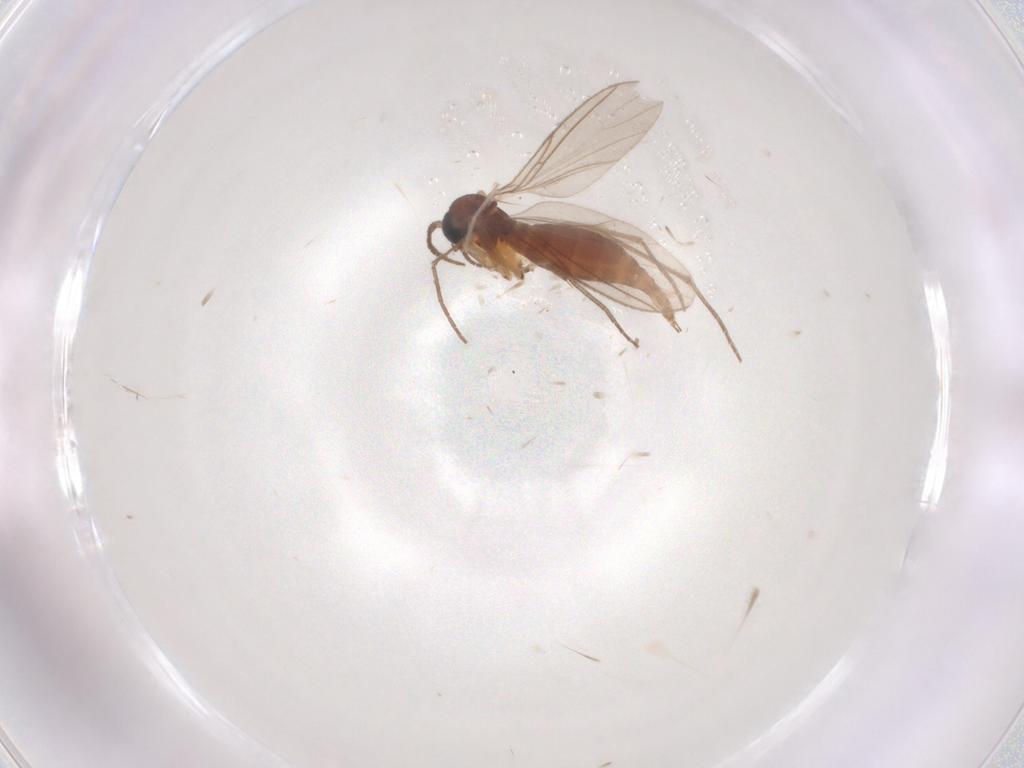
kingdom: Animalia
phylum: Arthropoda
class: Insecta
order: Diptera
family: Sciaridae
